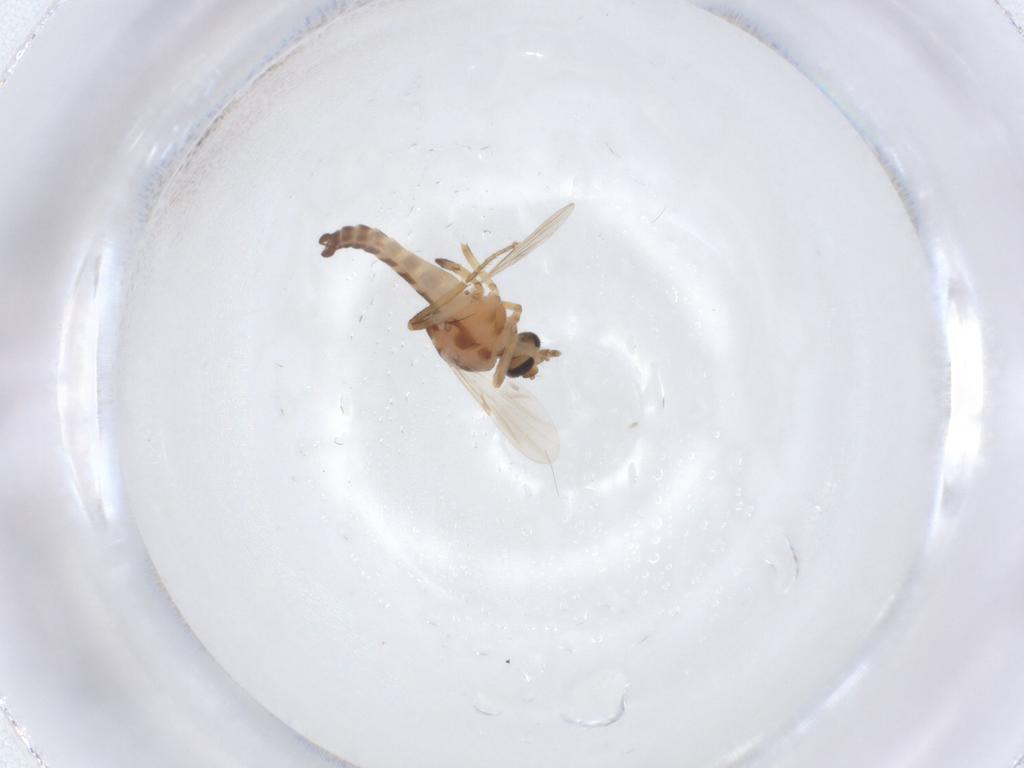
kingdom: Animalia
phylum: Arthropoda
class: Insecta
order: Diptera
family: Ceratopogonidae
